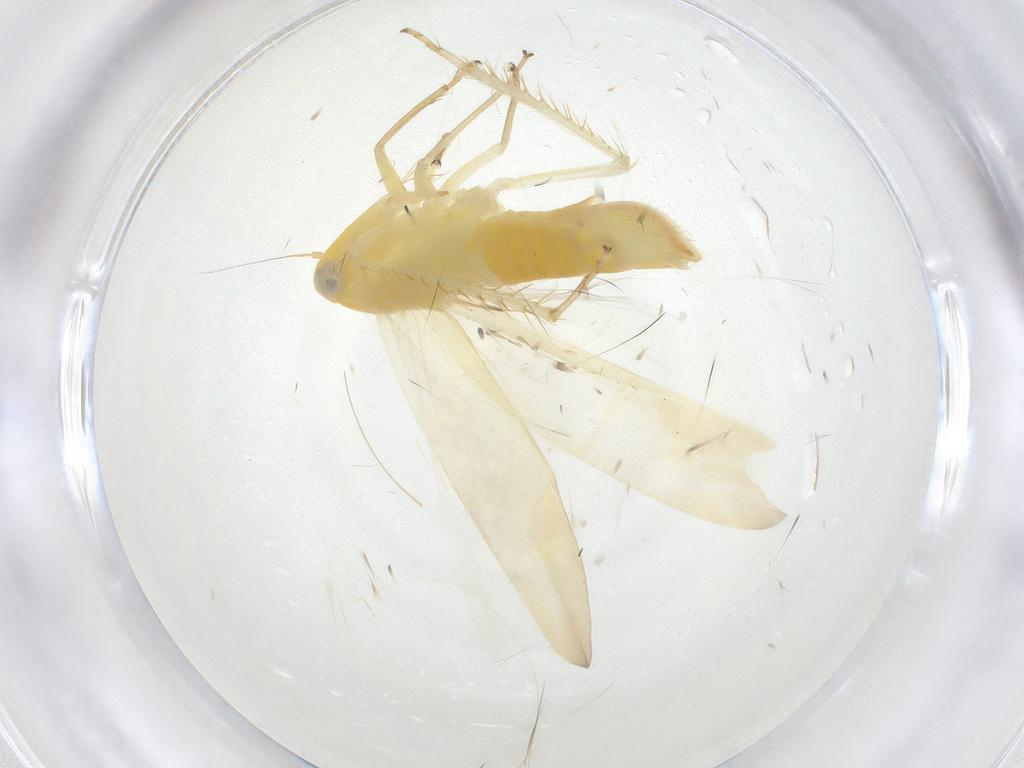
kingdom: Animalia
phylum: Arthropoda
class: Insecta
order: Hemiptera
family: Cicadellidae
